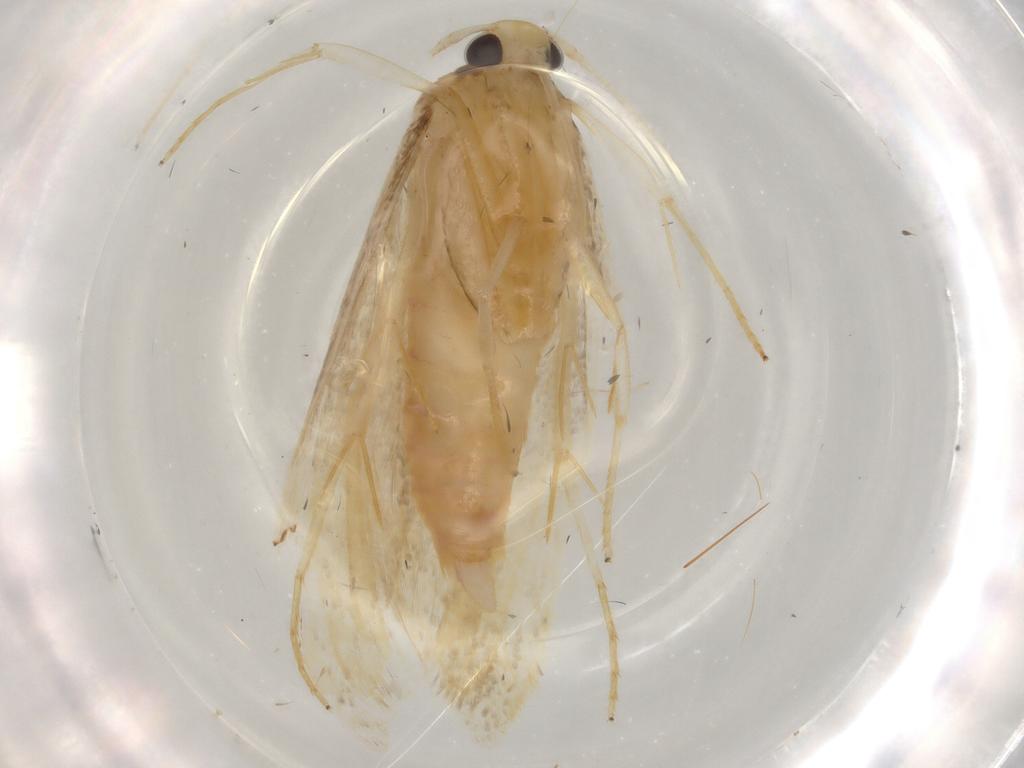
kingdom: Animalia
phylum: Arthropoda
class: Insecta
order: Lepidoptera
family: Lecithoceridae
